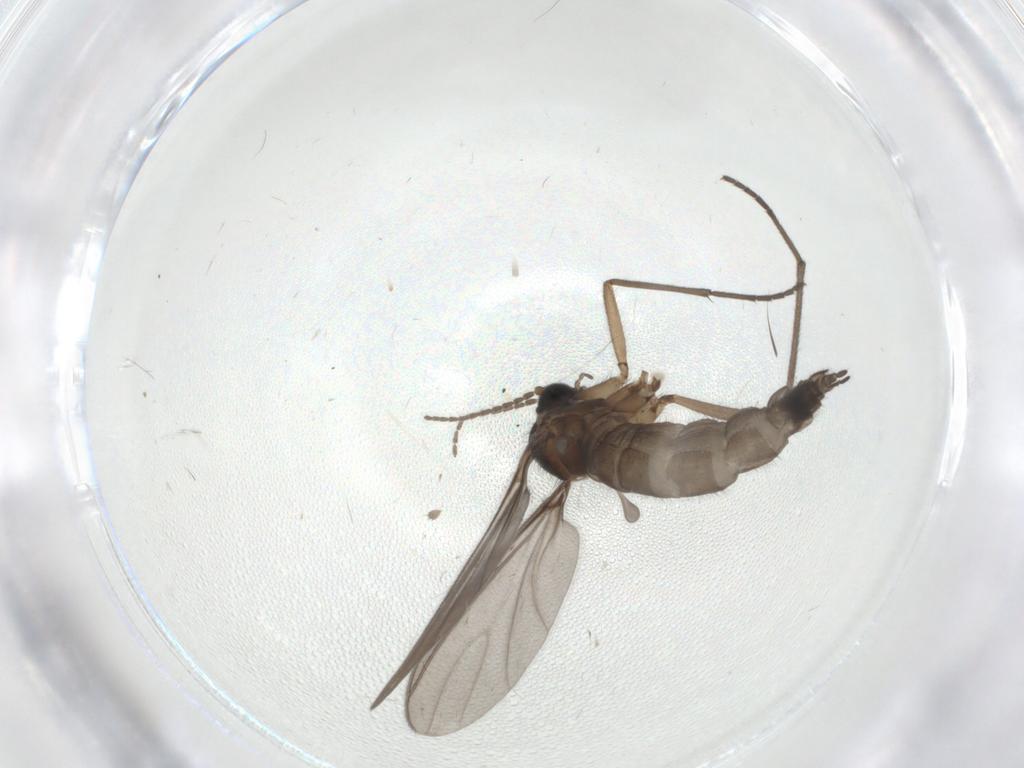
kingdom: Animalia
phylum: Arthropoda
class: Insecta
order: Diptera
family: Sciaridae
